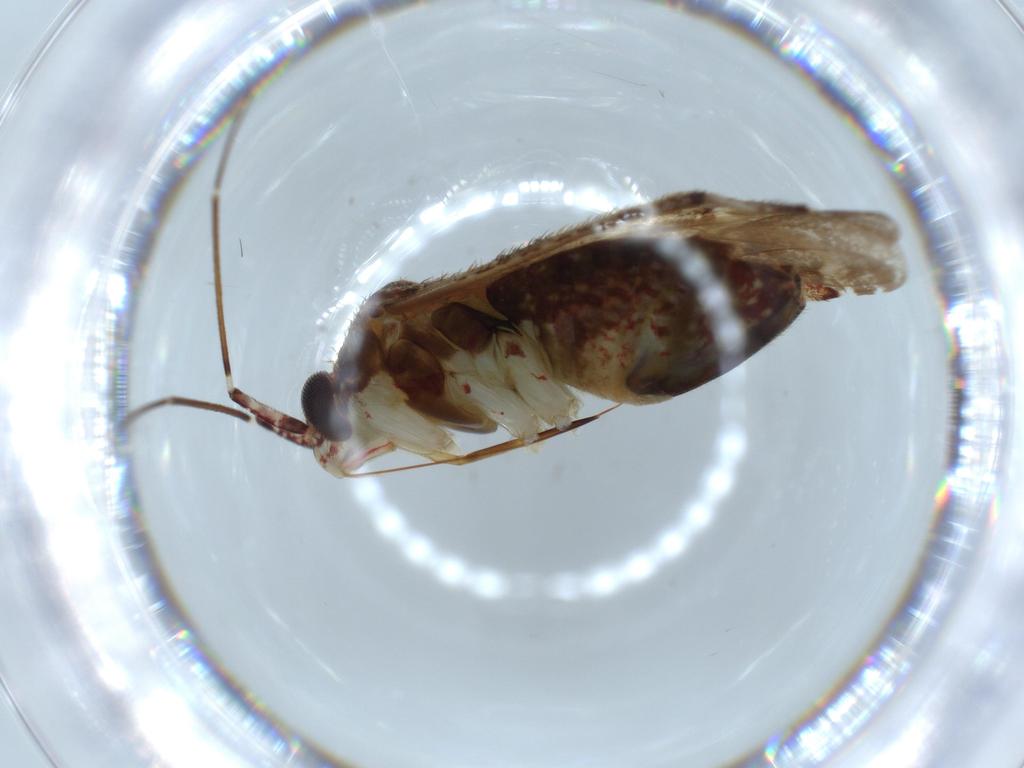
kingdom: Animalia
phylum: Arthropoda
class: Insecta
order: Hemiptera
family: Miridae
